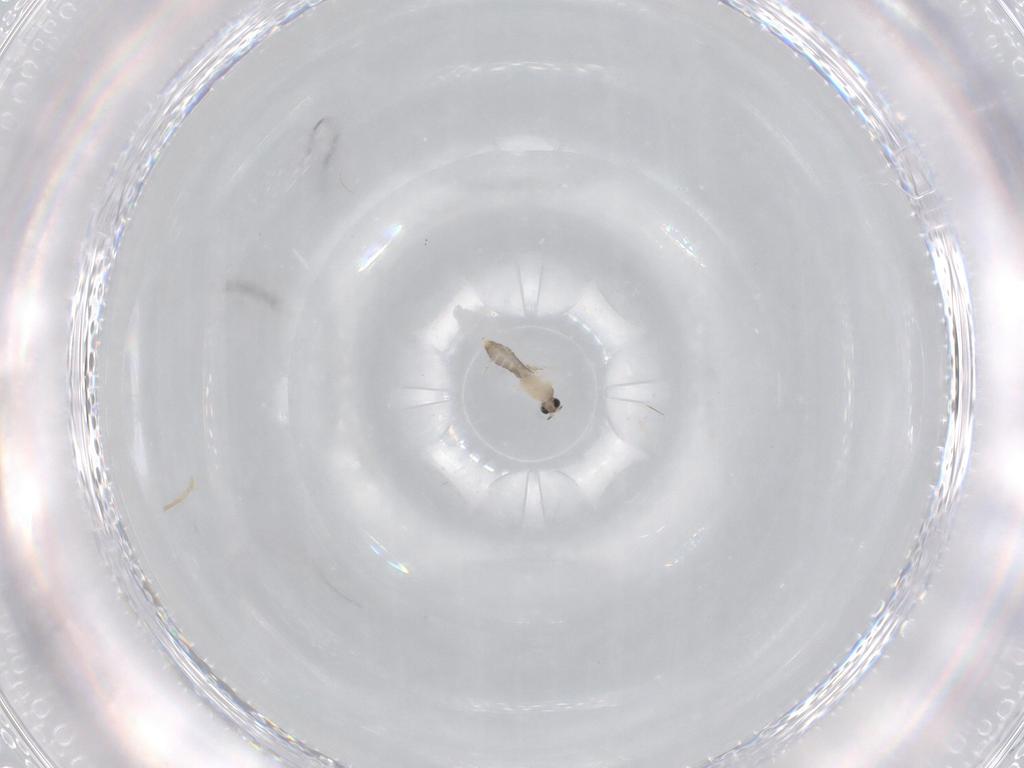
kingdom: Animalia
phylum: Arthropoda
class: Insecta
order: Diptera
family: Cecidomyiidae
